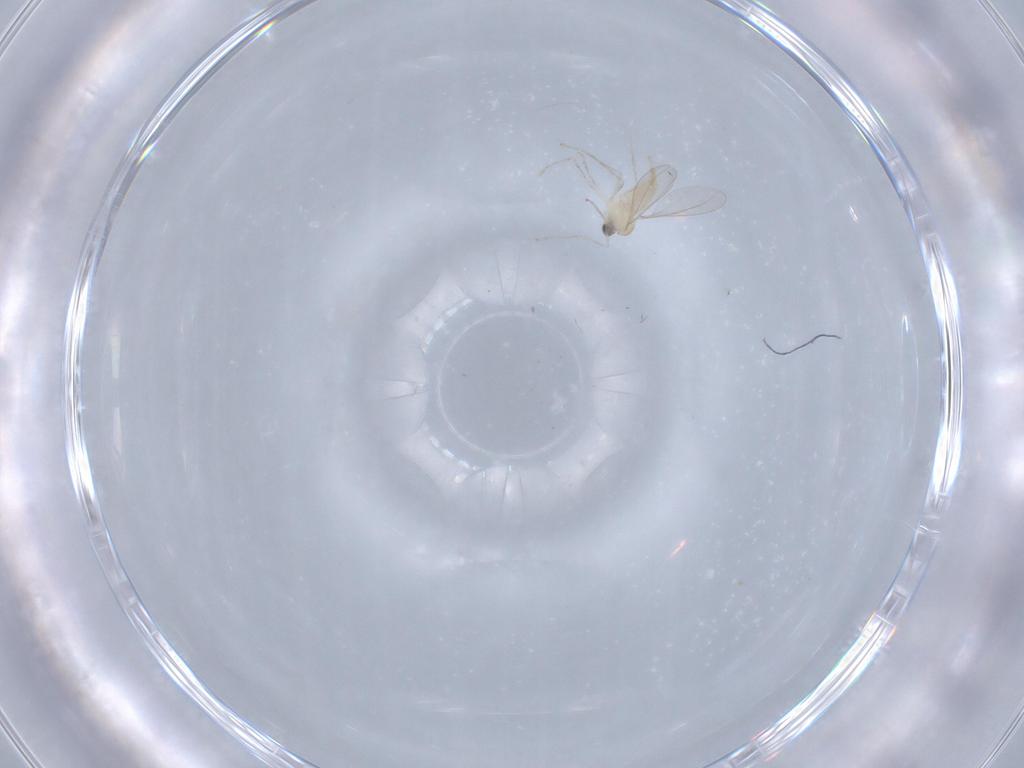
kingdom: Animalia
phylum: Arthropoda
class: Insecta
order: Diptera
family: Cecidomyiidae
